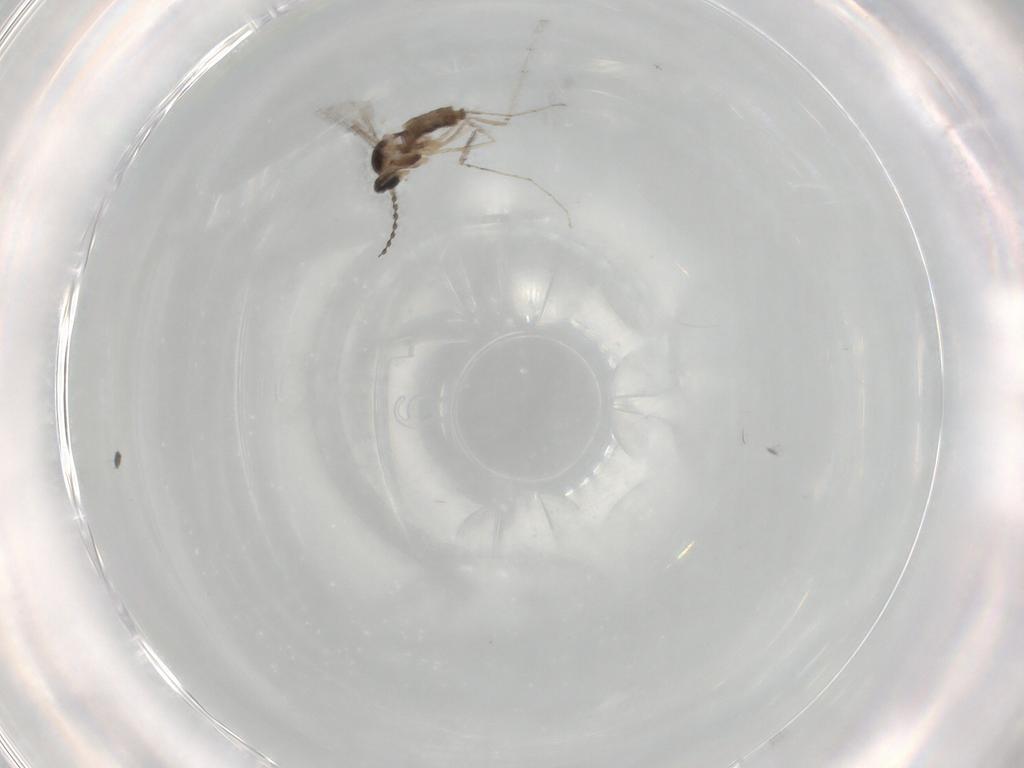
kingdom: Animalia
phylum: Arthropoda
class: Insecta
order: Diptera
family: Cecidomyiidae
